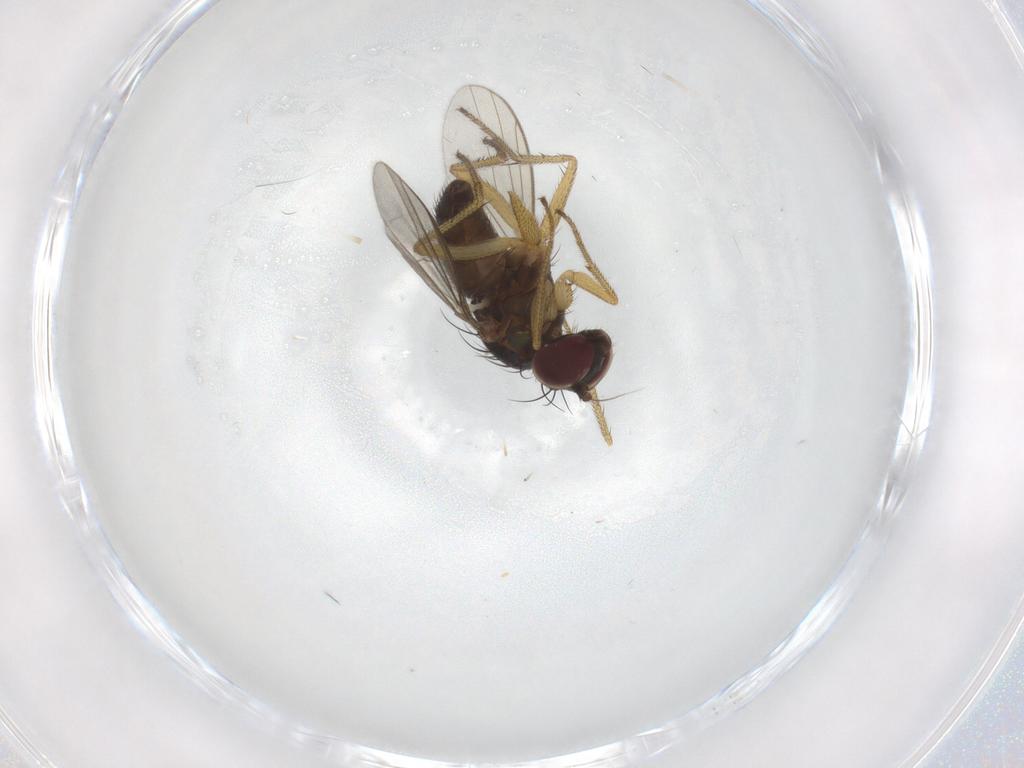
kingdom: Animalia
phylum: Arthropoda
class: Insecta
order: Diptera
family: Dolichopodidae
